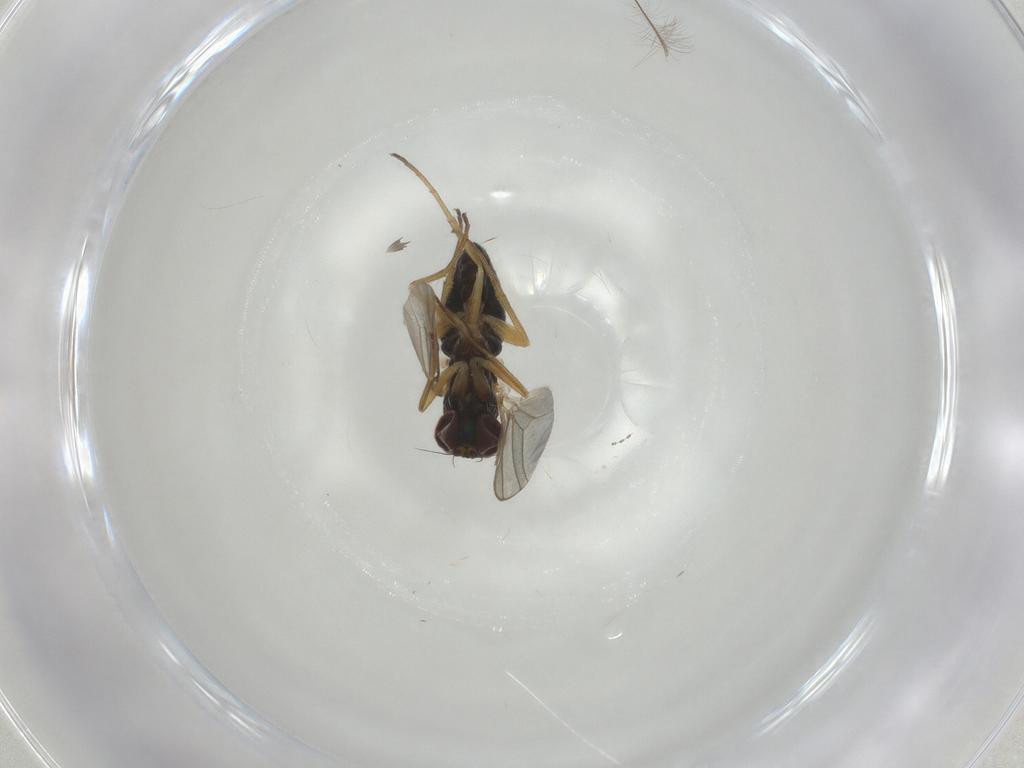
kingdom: Animalia
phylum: Arthropoda
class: Insecta
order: Diptera
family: Dolichopodidae
